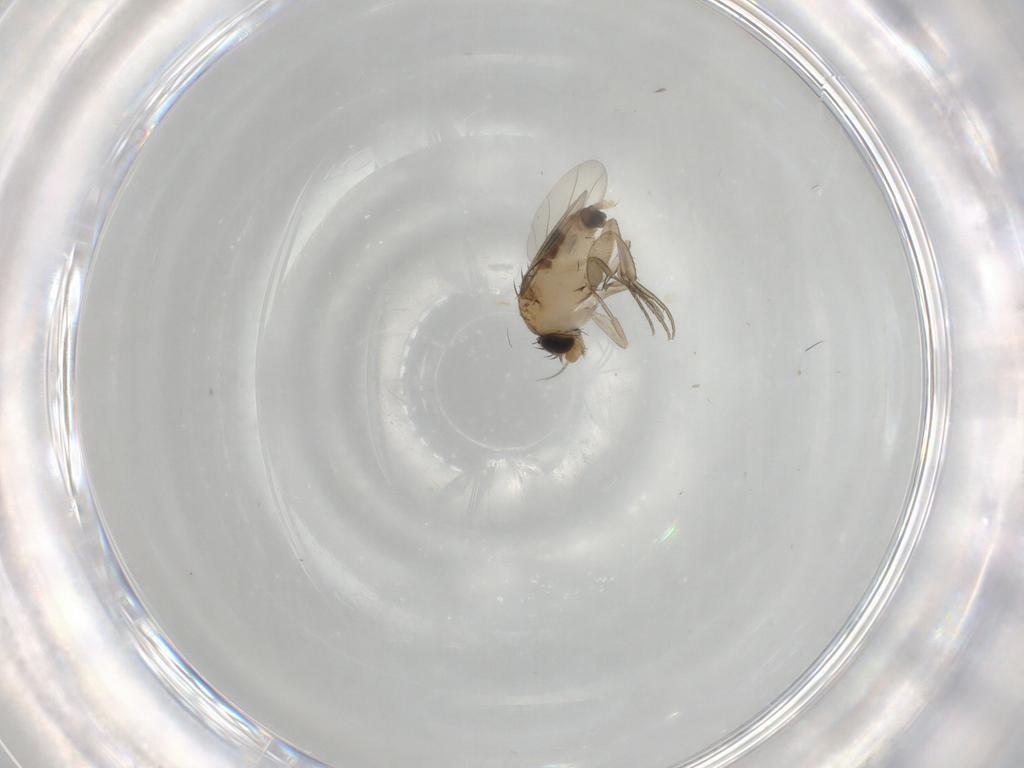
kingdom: Animalia
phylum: Arthropoda
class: Insecta
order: Diptera
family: Phoridae
